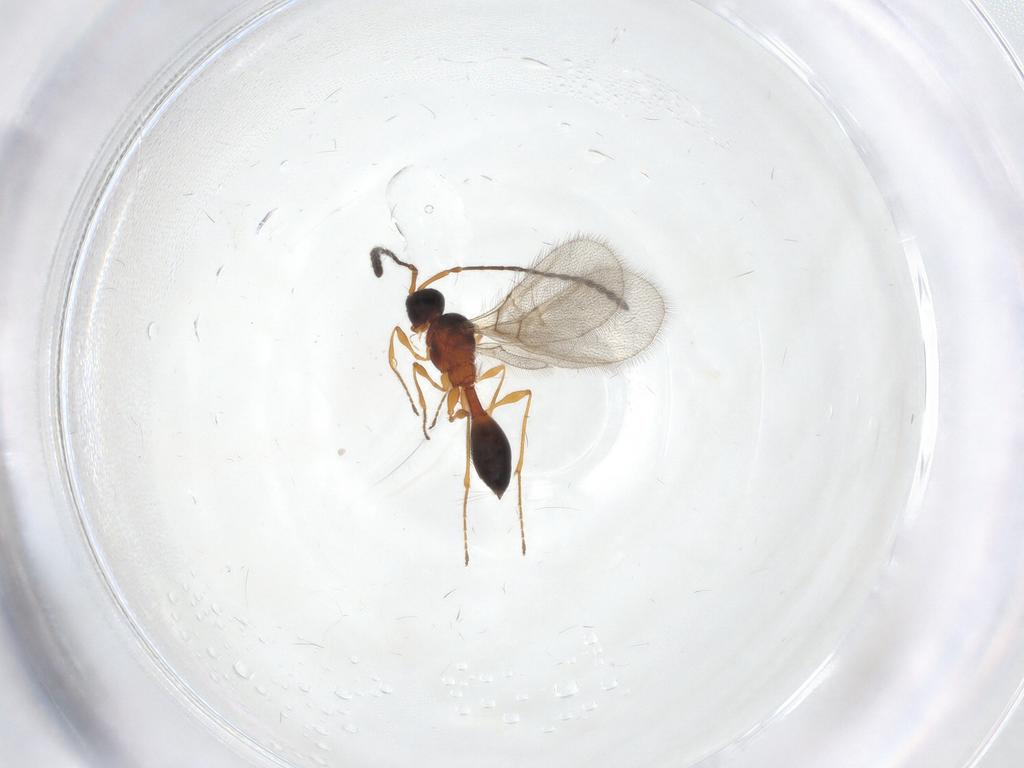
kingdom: Animalia
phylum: Arthropoda
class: Insecta
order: Hymenoptera
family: Diapriidae
